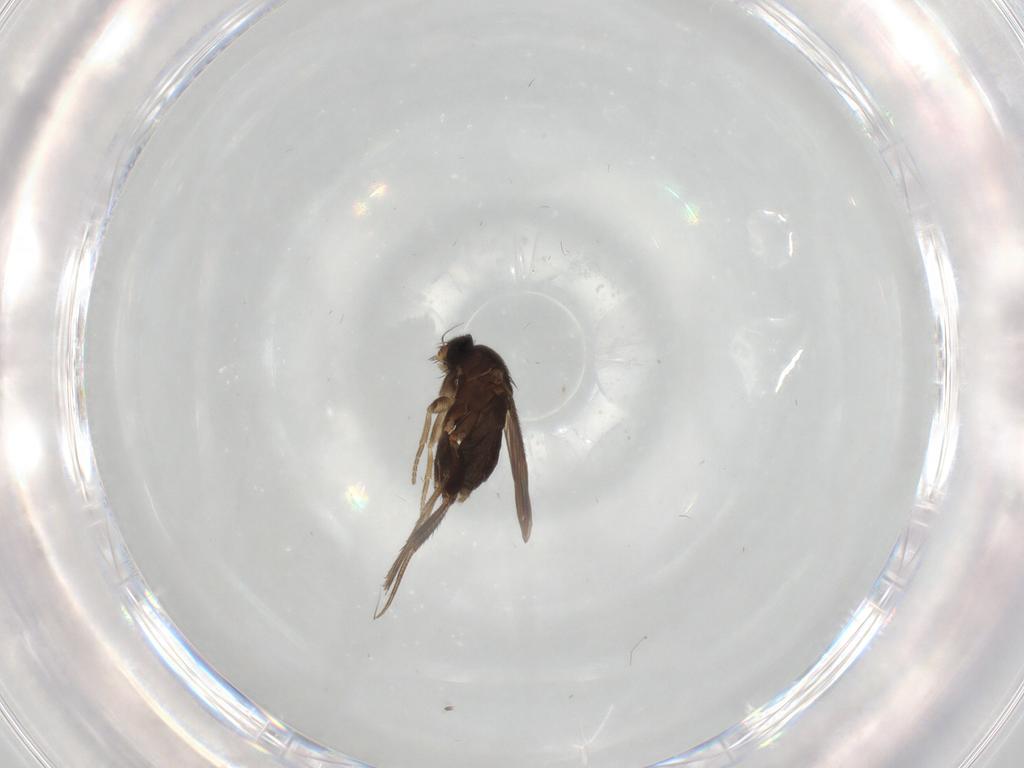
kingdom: Animalia
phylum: Arthropoda
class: Insecta
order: Diptera
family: Phoridae
